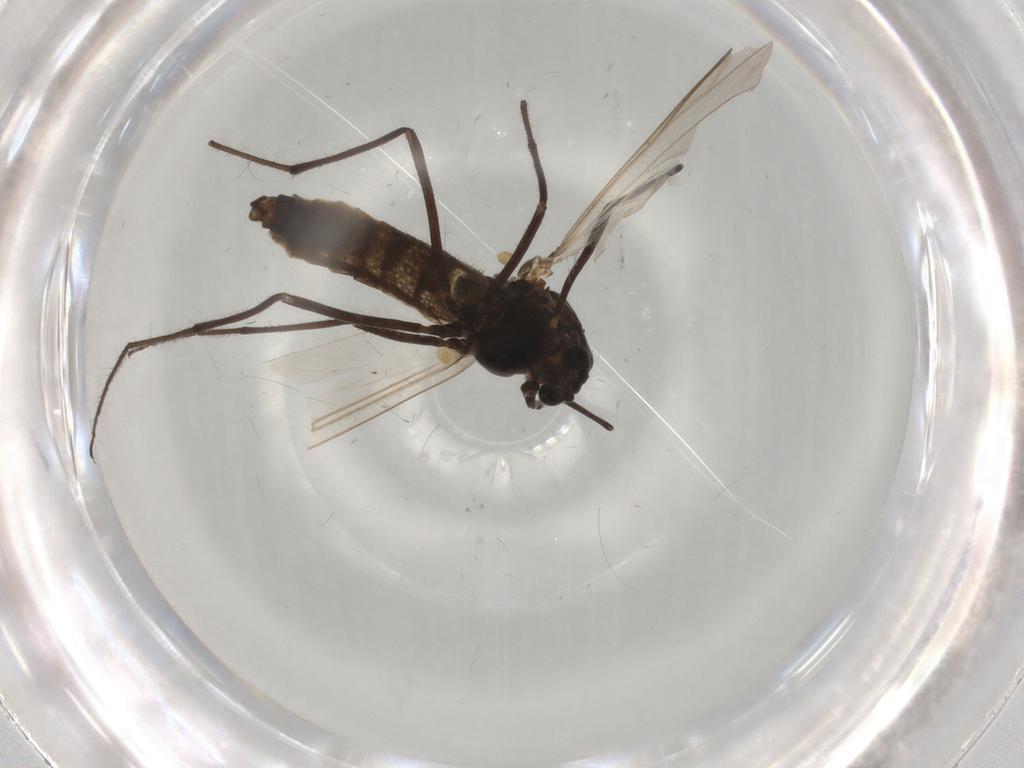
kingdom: Animalia
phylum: Arthropoda
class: Insecta
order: Diptera
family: Chironomidae
